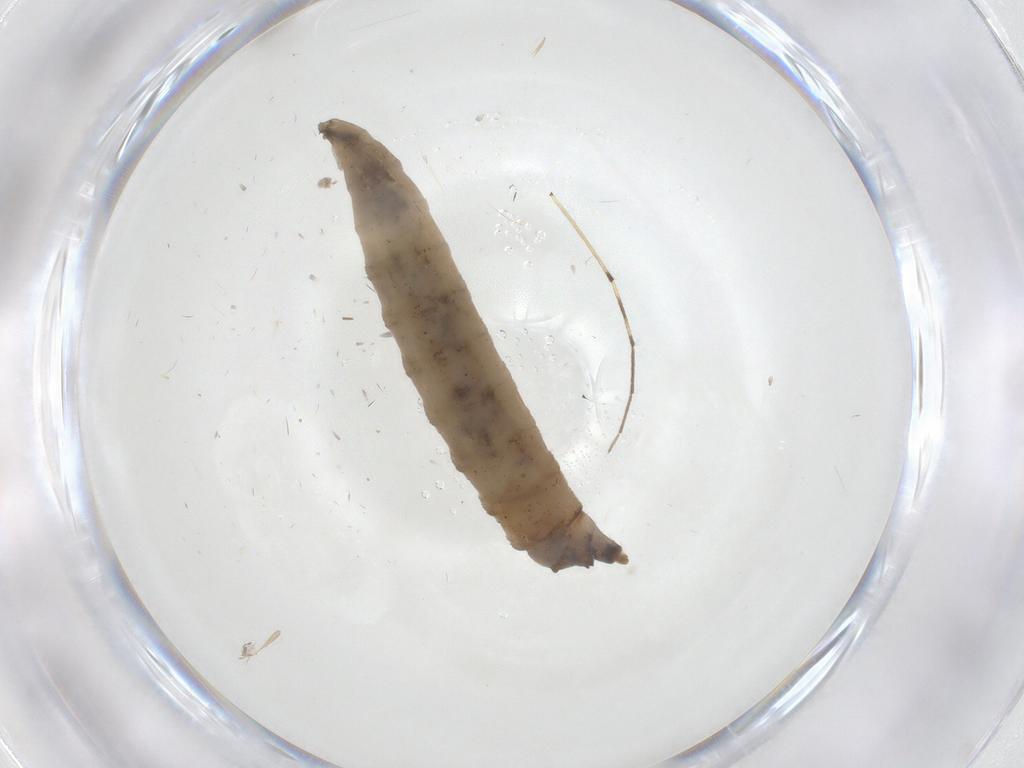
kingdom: Animalia
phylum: Arthropoda
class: Insecta
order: Diptera
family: Drosophilidae
